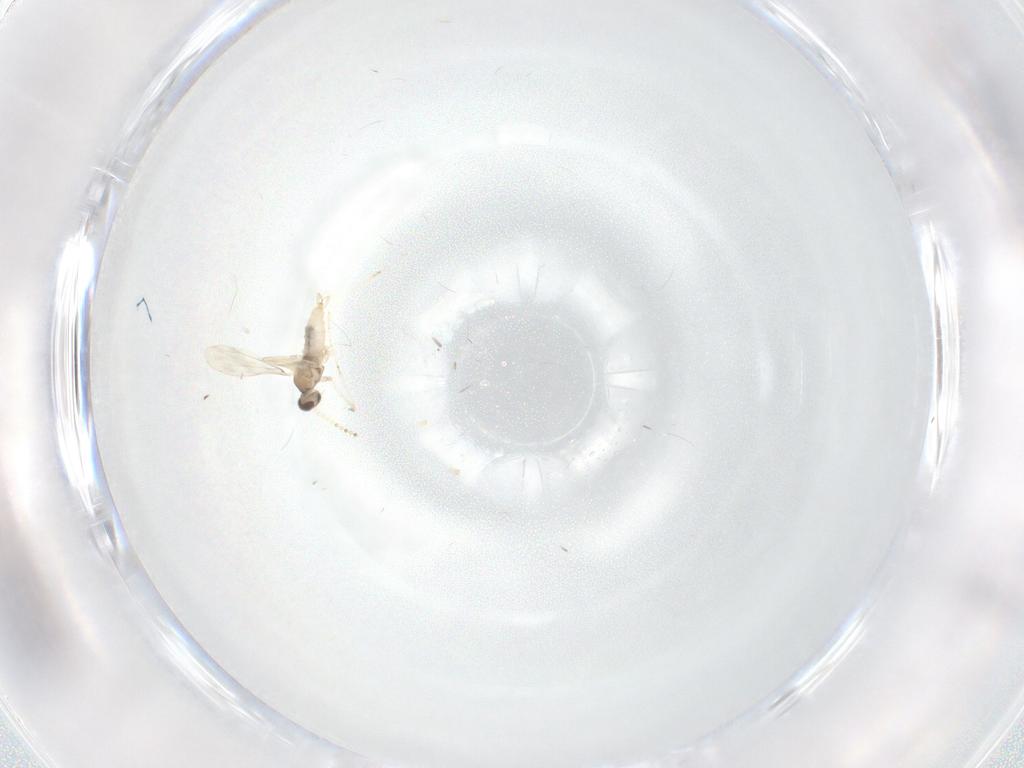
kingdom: Animalia
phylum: Arthropoda
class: Insecta
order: Diptera
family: Cecidomyiidae
